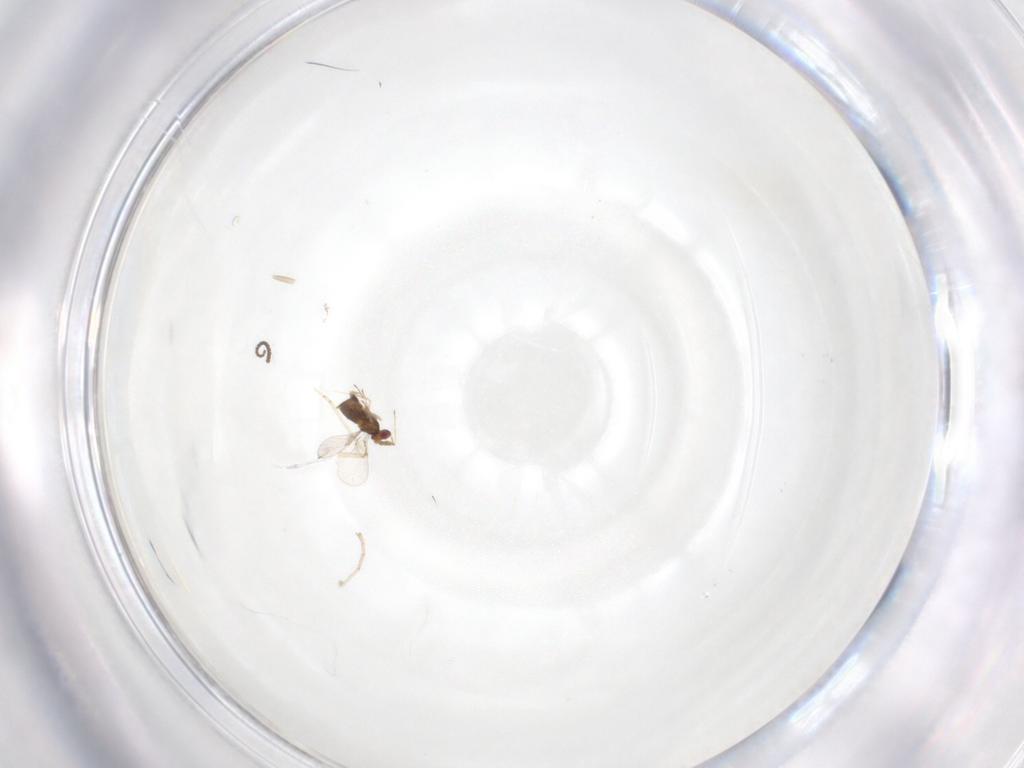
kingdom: Animalia
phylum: Arthropoda
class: Insecta
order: Hymenoptera
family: Trichogrammatidae
